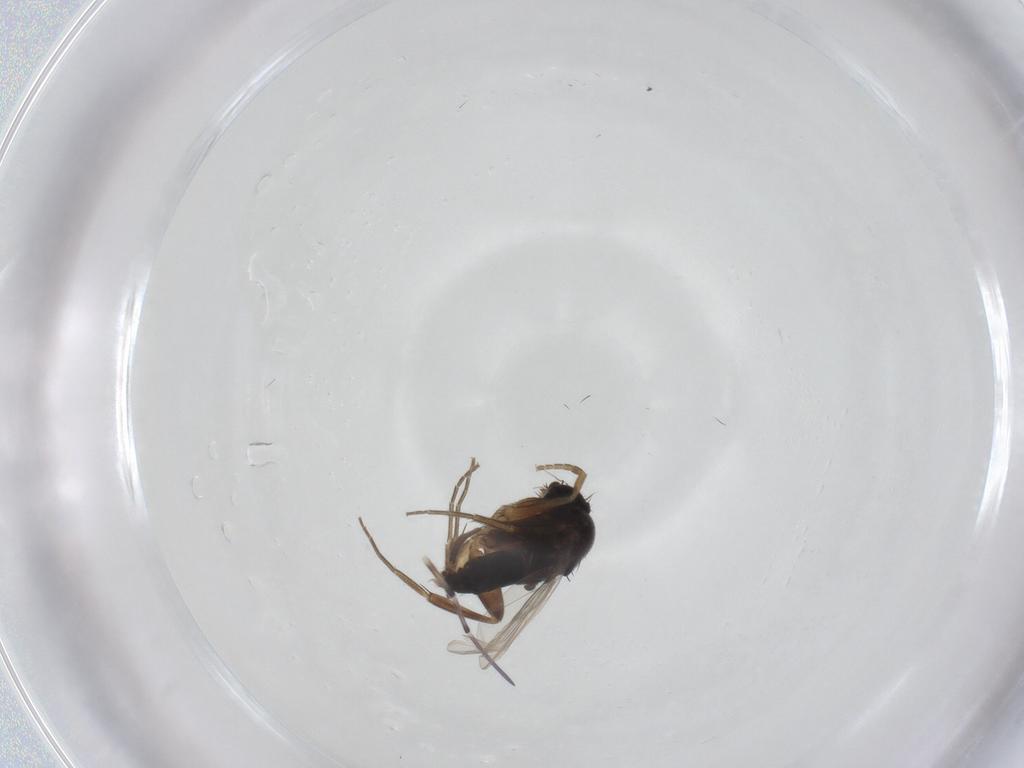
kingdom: Animalia
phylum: Arthropoda
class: Insecta
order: Diptera
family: Phoridae
